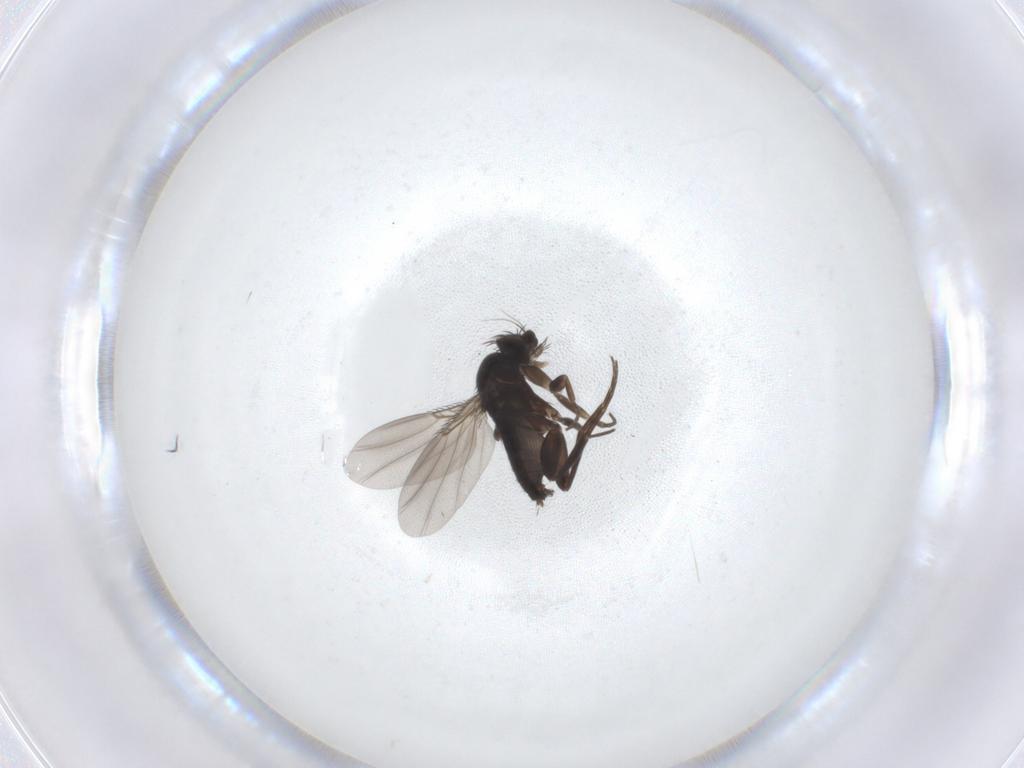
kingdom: Animalia
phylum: Arthropoda
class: Insecta
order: Diptera
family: Phoridae
